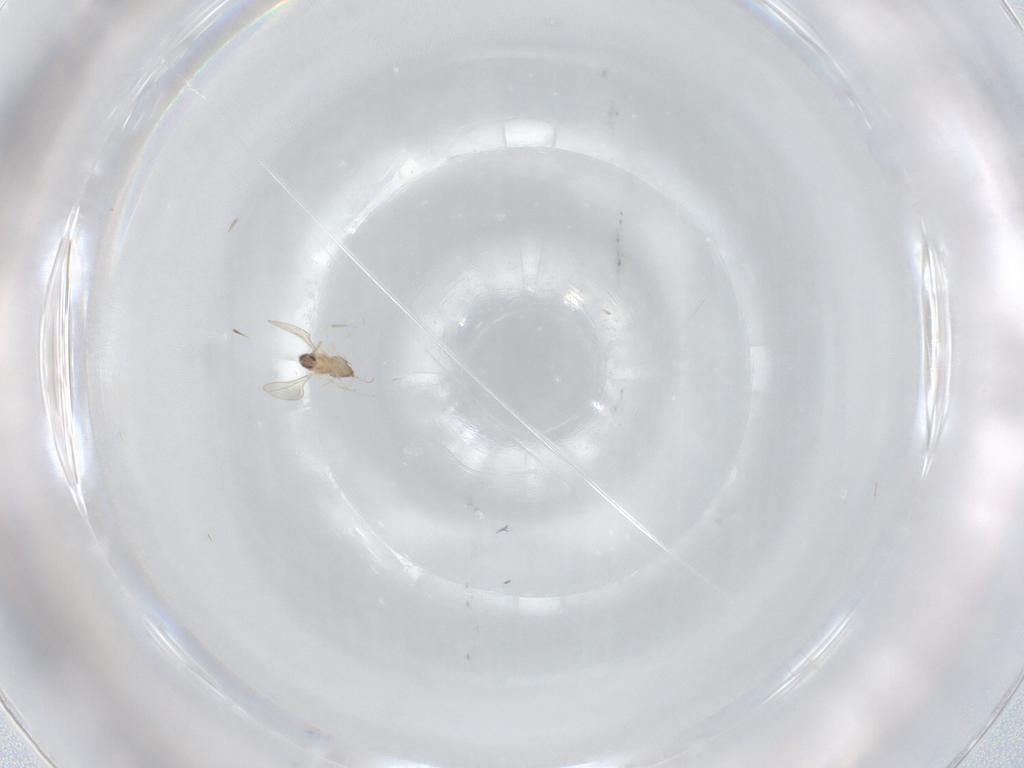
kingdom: Animalia
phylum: Arthropoda
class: Insecta
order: Diptera
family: Cecidomyiidae
